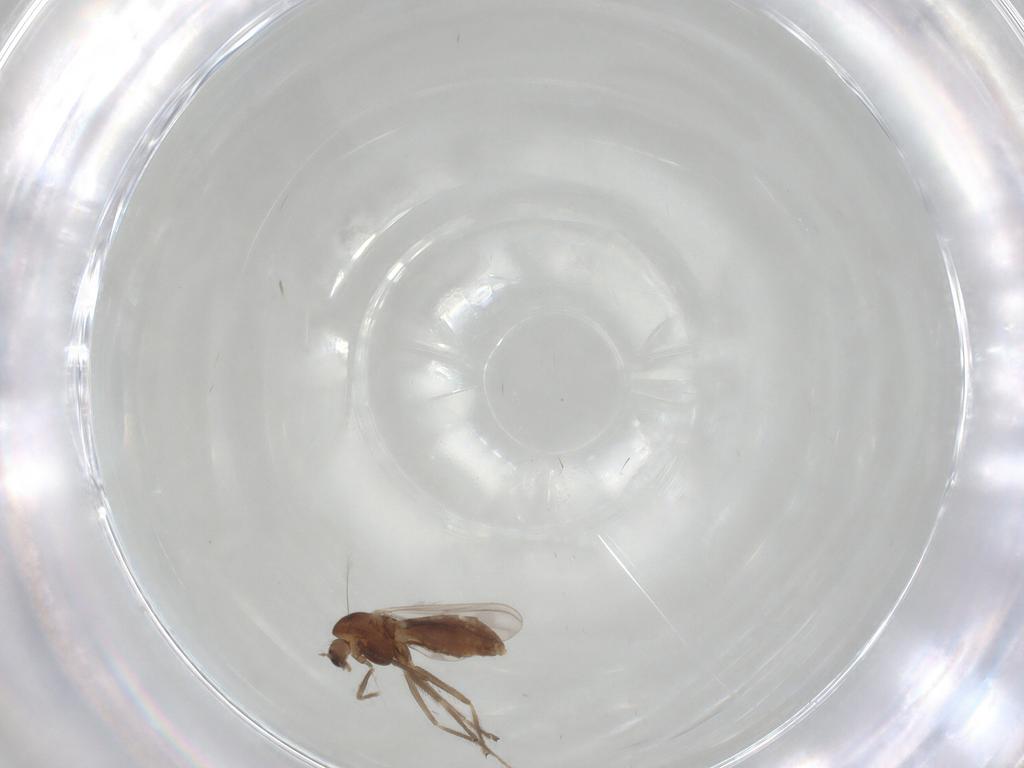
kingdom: Animalia
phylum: Arthropoda
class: Insecta
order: Diptera
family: Chironomidae
